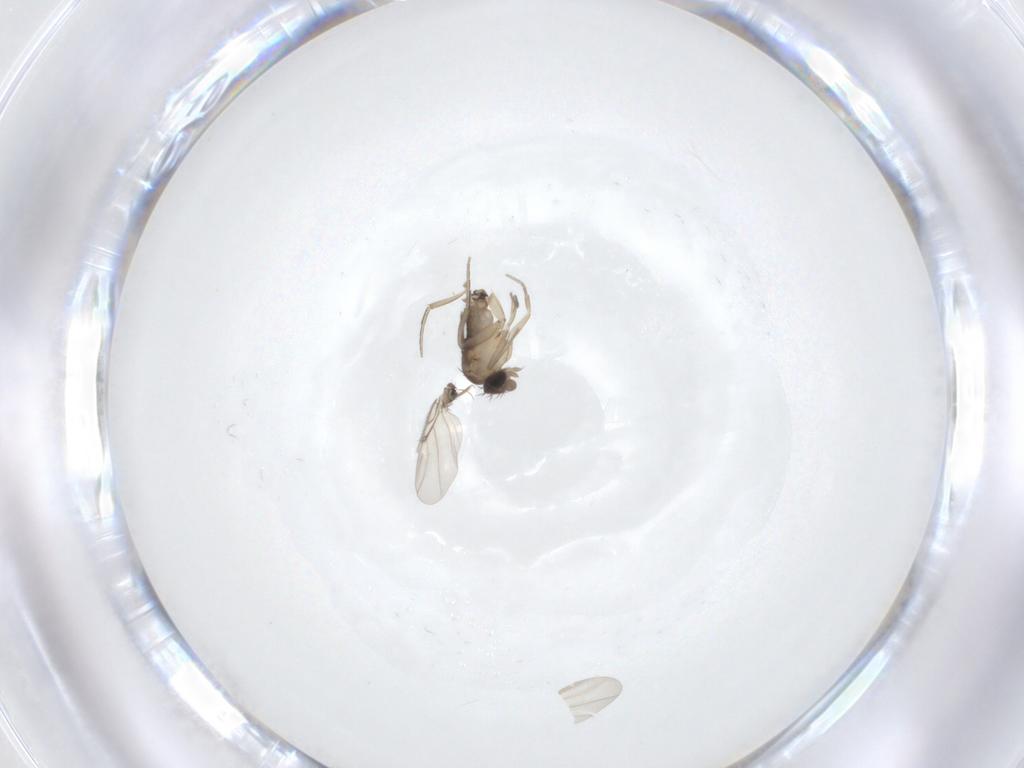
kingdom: Animalia
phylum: Arthropoda
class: Insecta
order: Diptera
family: Phoridae
